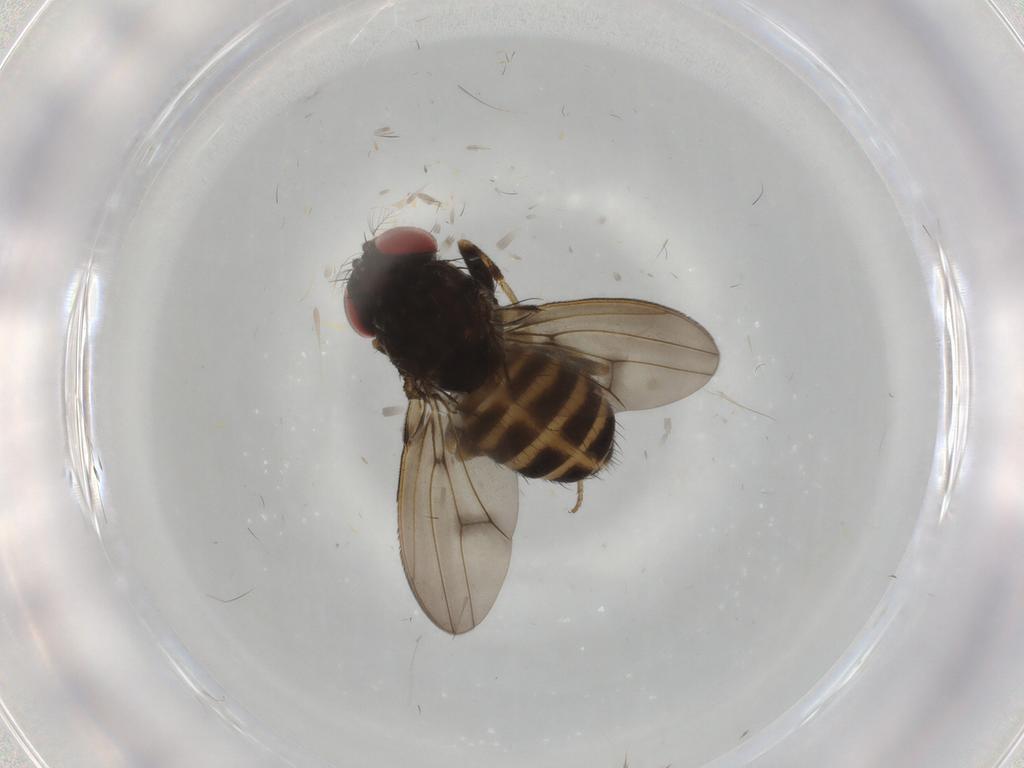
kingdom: Animalia
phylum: Arthropoda
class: Insecta
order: Diptera
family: Drosophilidae
